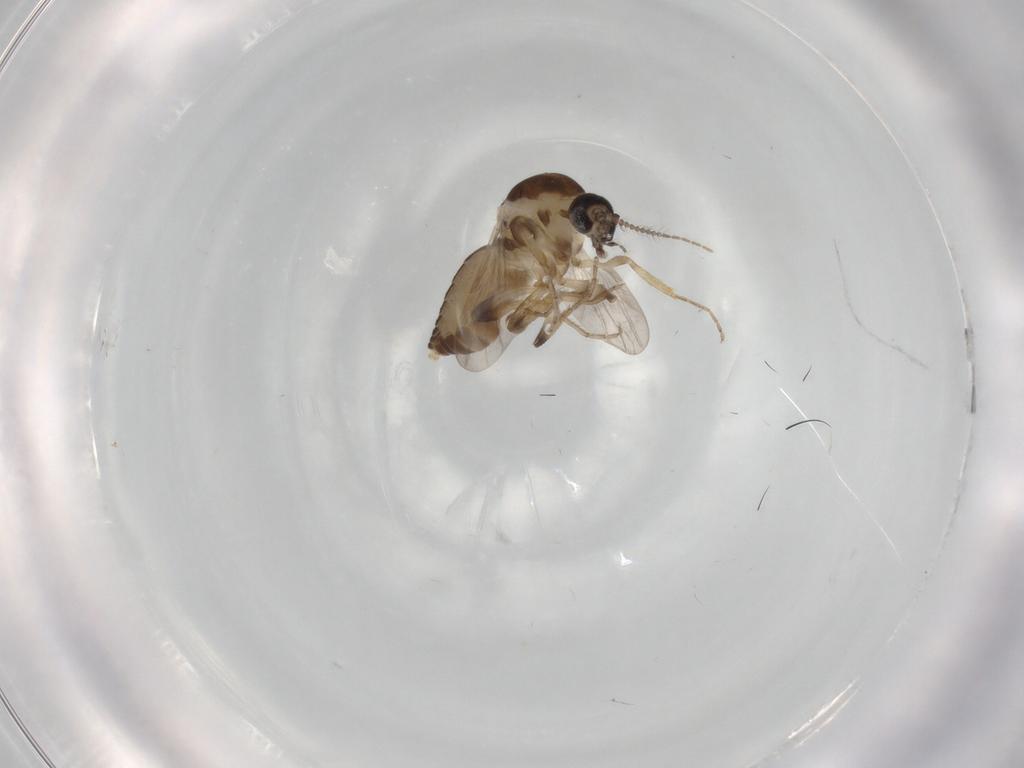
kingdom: Animalia
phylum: Arthropoda
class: Insecta
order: Diptera
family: Ceratopogonidae
